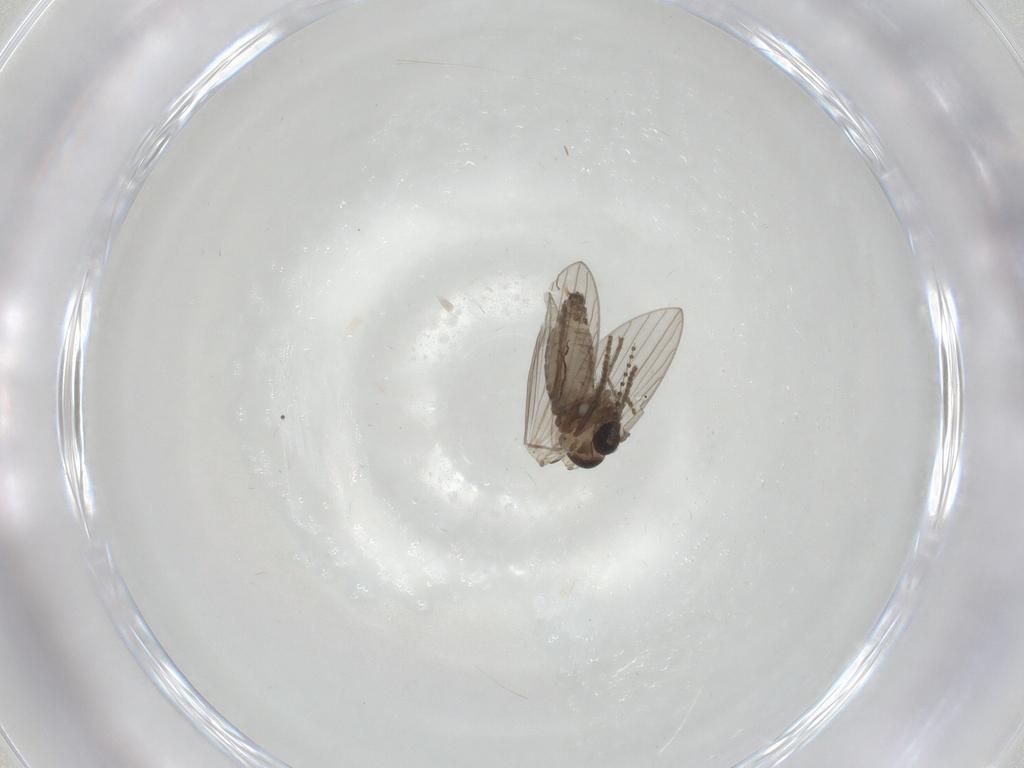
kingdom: Animalia
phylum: Arthropoda
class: Insecta
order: Diptera
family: Psychodidae
